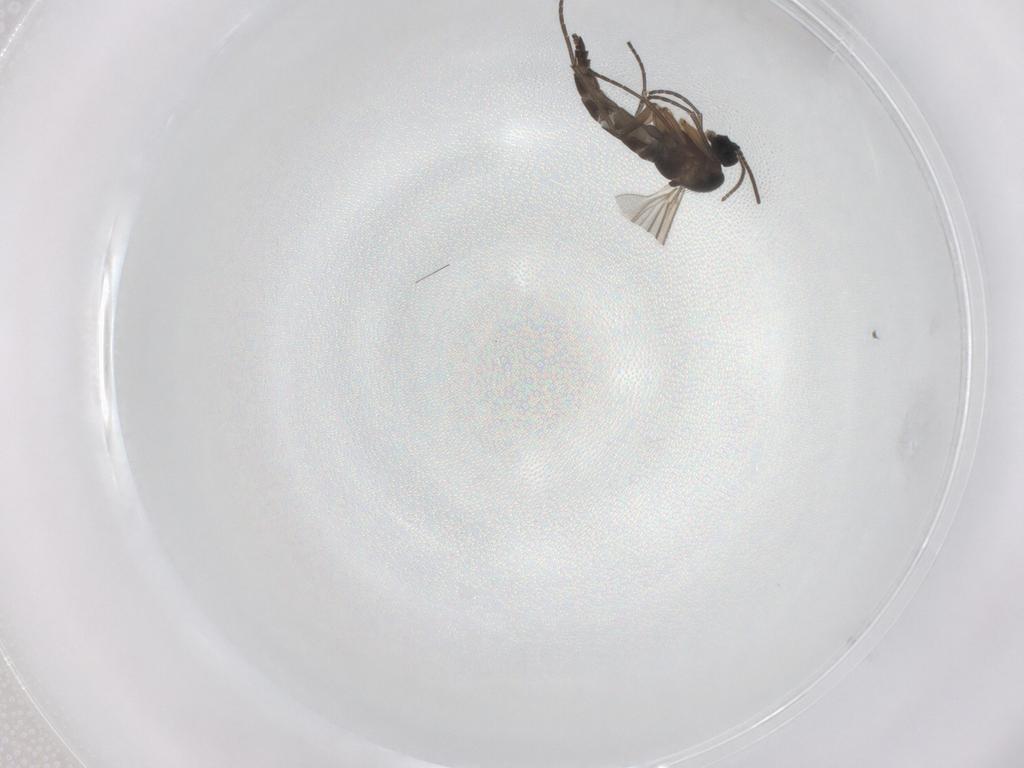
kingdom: Animalia
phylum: Arthropoda
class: Insecta
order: Diptera
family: Sciaridae
